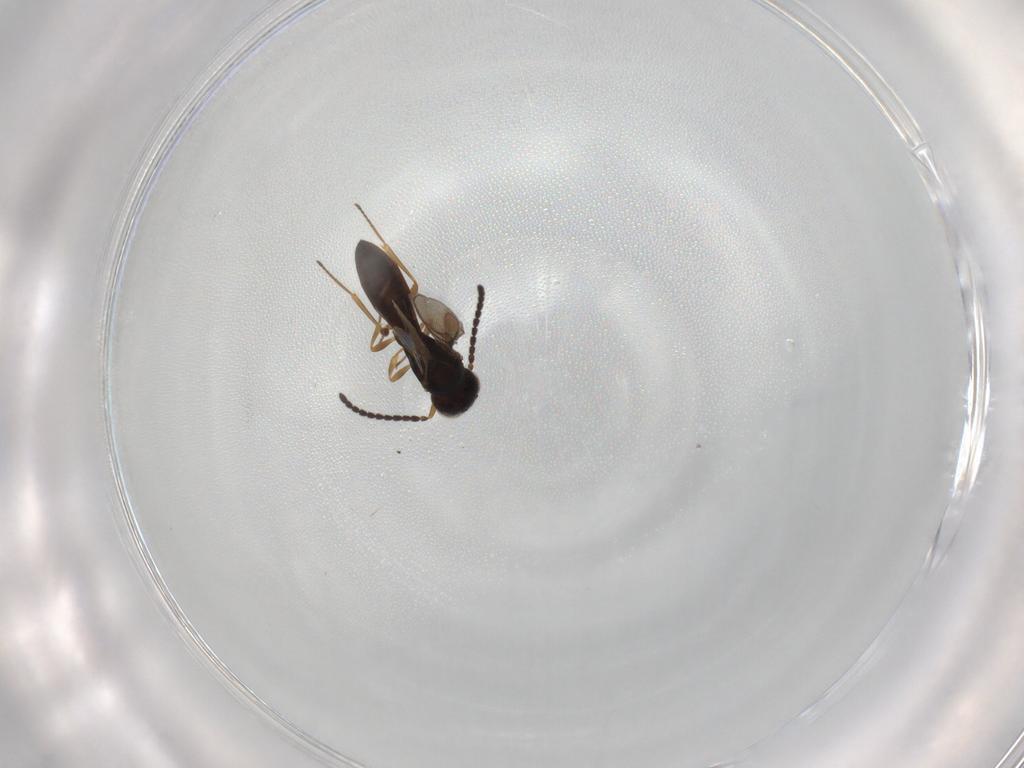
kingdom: Animalia
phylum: Arthropoda
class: Insecta
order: Hymenoptera
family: Scelionidae
